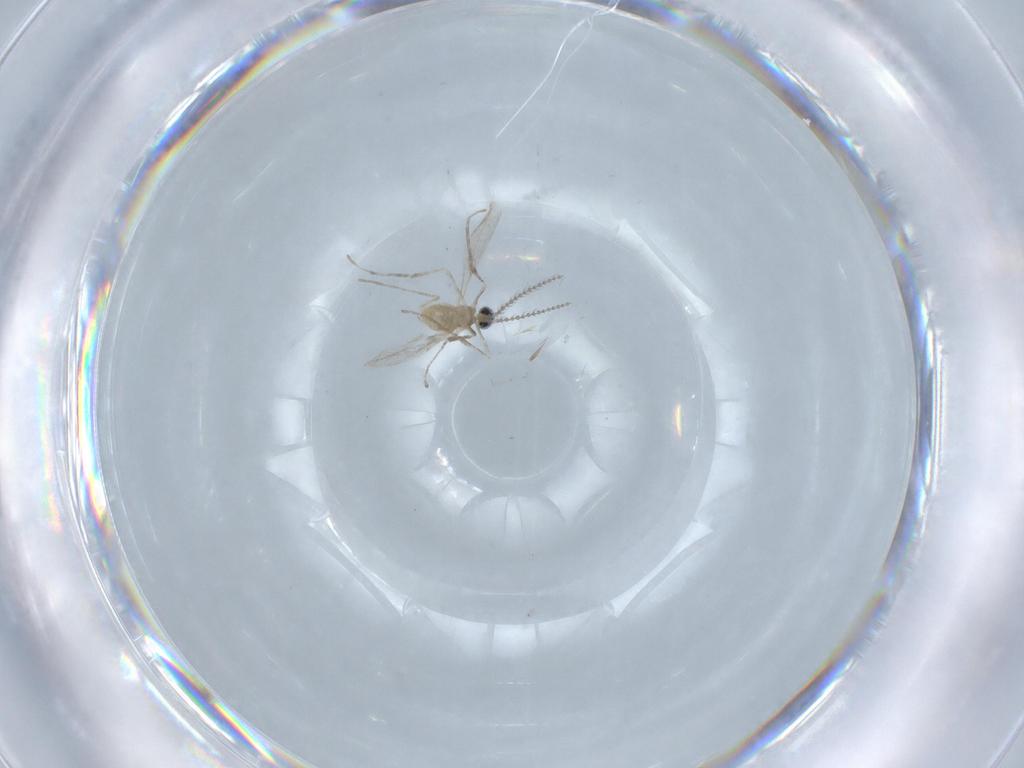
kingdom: Animalia
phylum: Arthropoda
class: Insecta
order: Diptera
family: Cecidomyiidae
